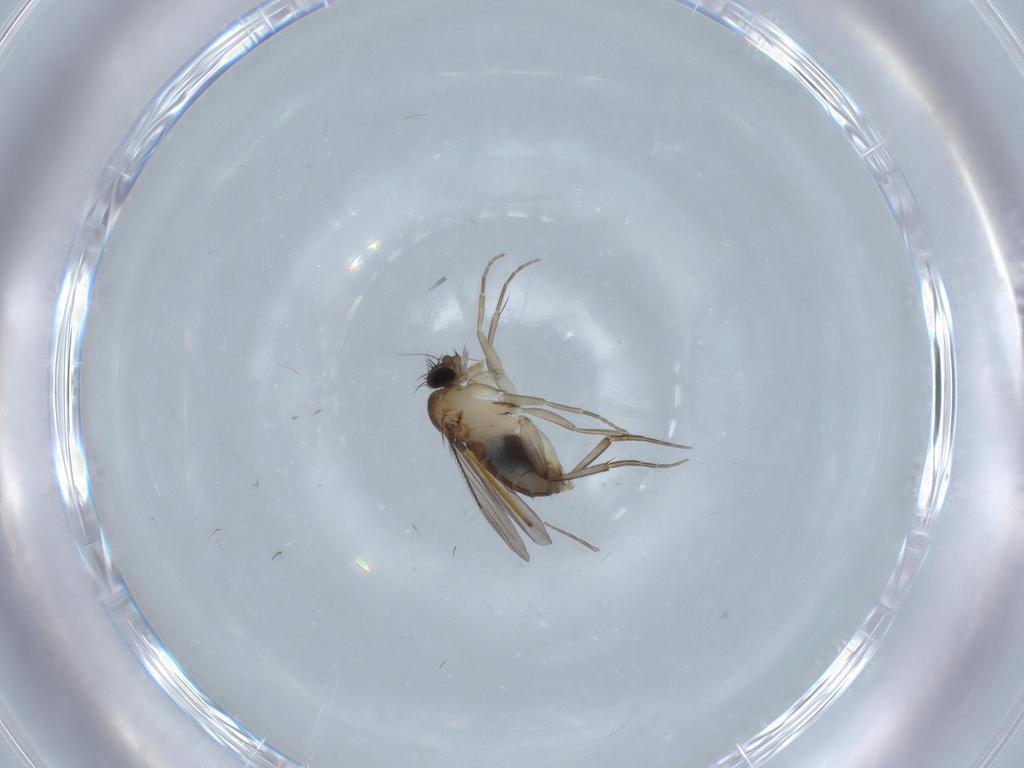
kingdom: Animalia
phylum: Arthropoda
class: Insecta
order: Diptera
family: Phoridae
